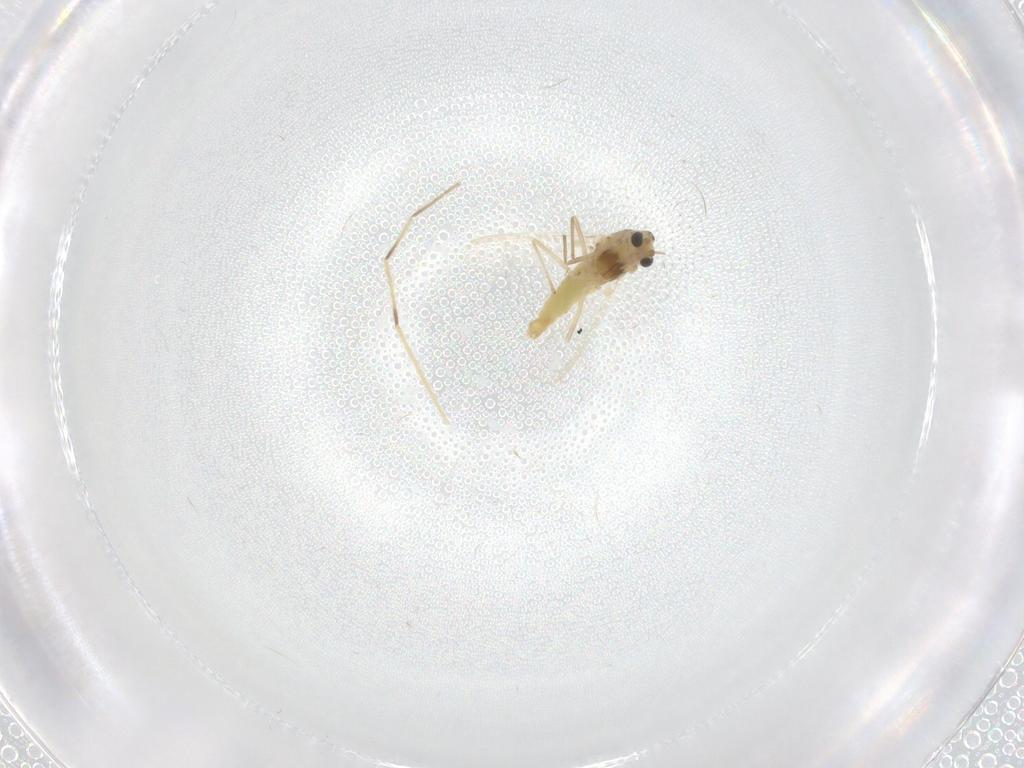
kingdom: Animalia
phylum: Arthropoda
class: Insecta
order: Diptera
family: Chironomidae
